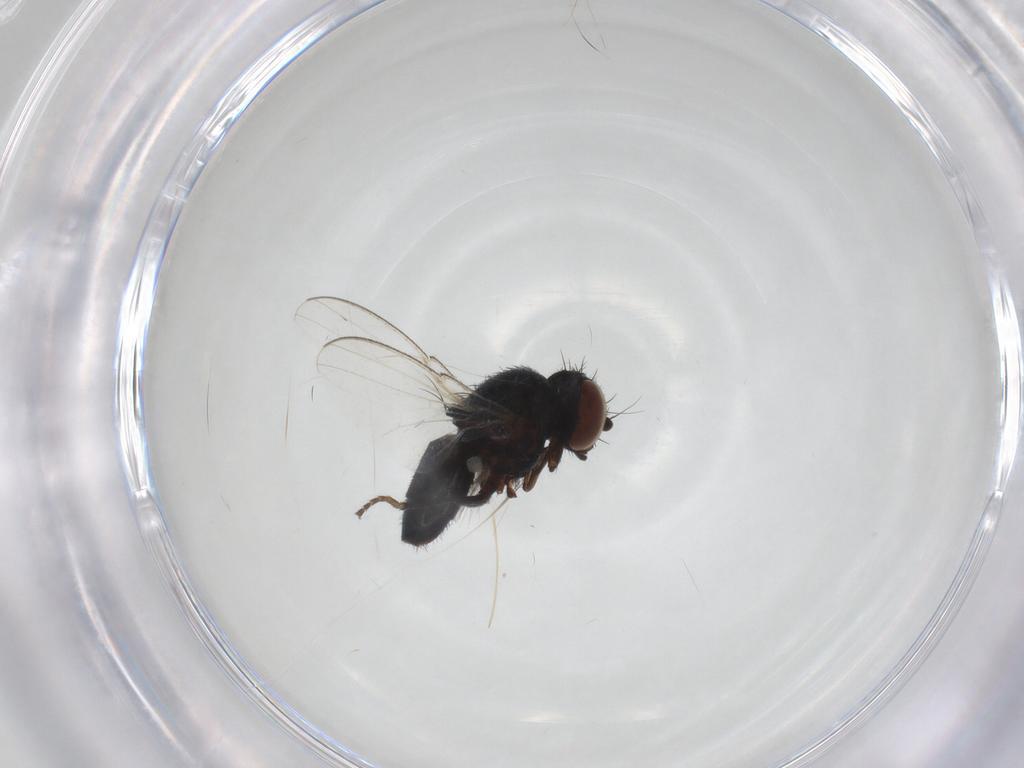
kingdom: Animalia
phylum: Arthropoda
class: Insecta
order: Diptera
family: Milichiidae
